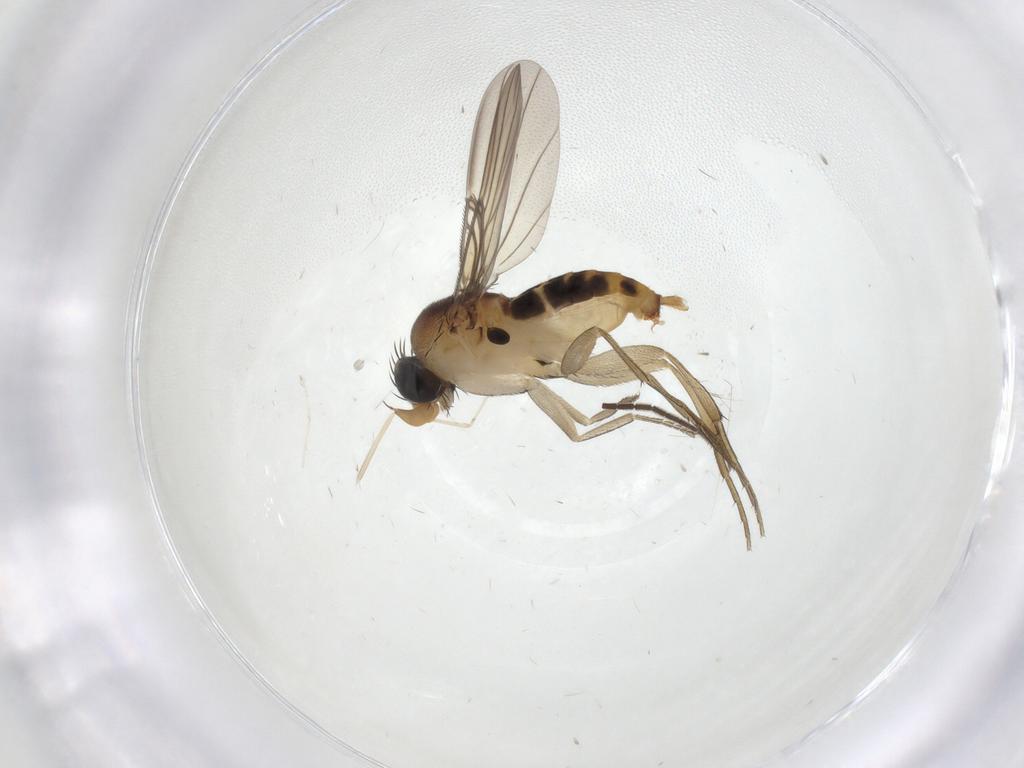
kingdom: Animalia
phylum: Arthropoda
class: Insecta
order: Diptera
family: Phoridae
